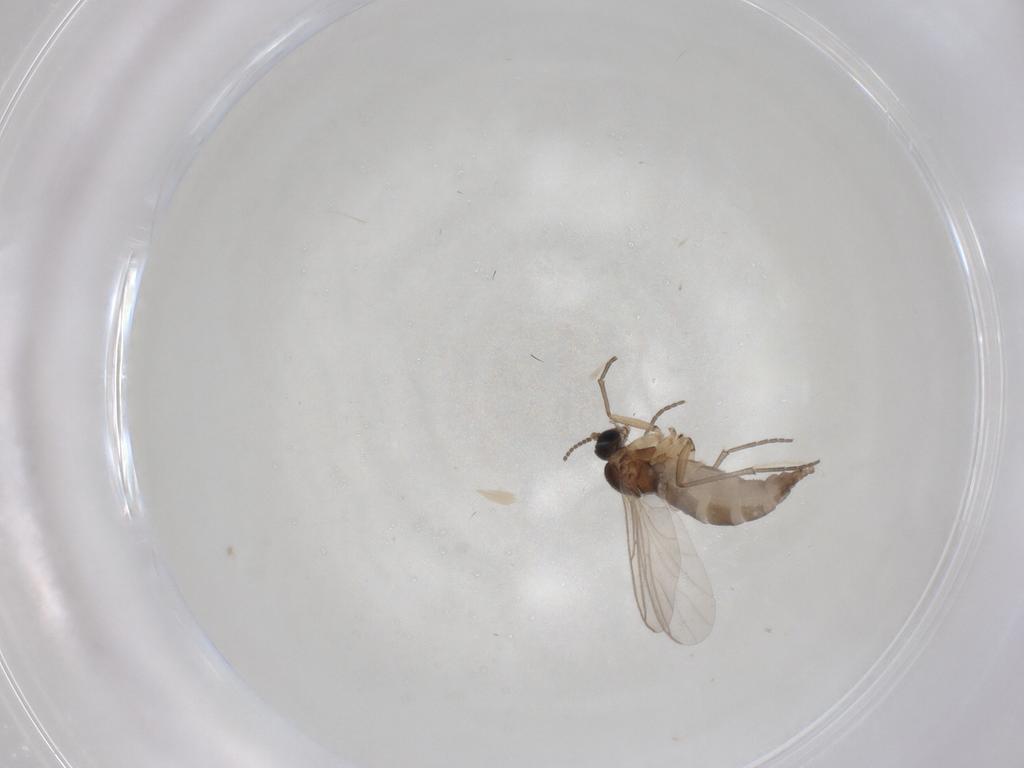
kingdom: Animalia
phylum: Arthropoda
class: Insecta
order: Diptera
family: Sciaridae
